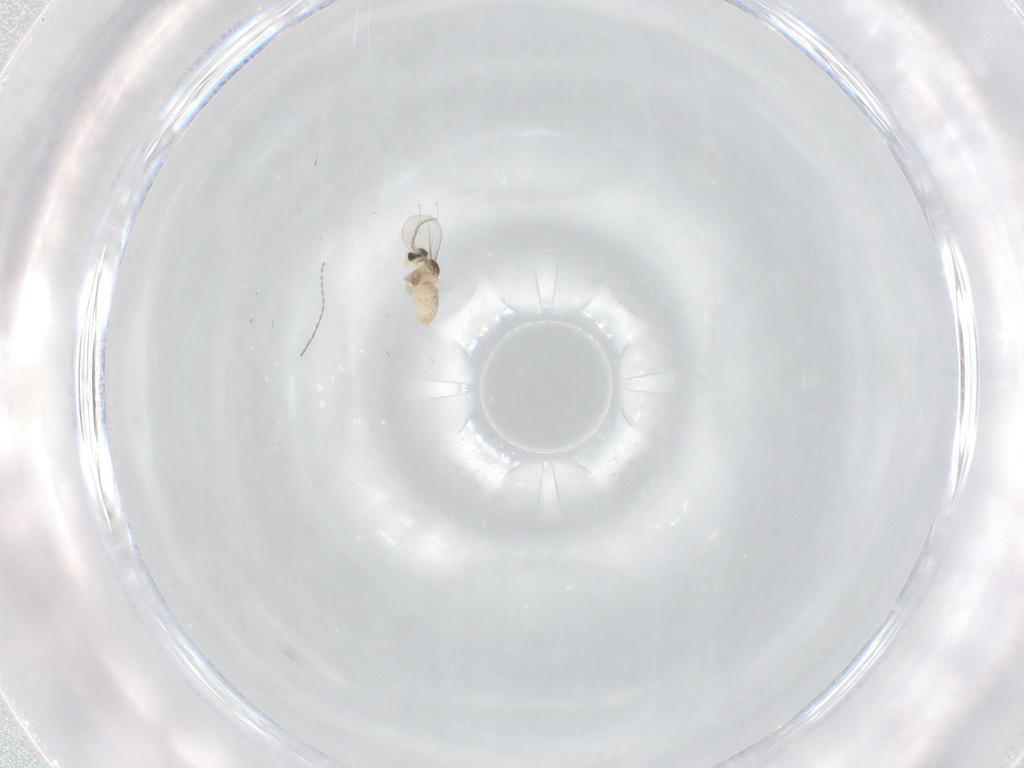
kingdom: Animalia
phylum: Arthropoda
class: Insecta
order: Diptera
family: Cecidomyiidae
